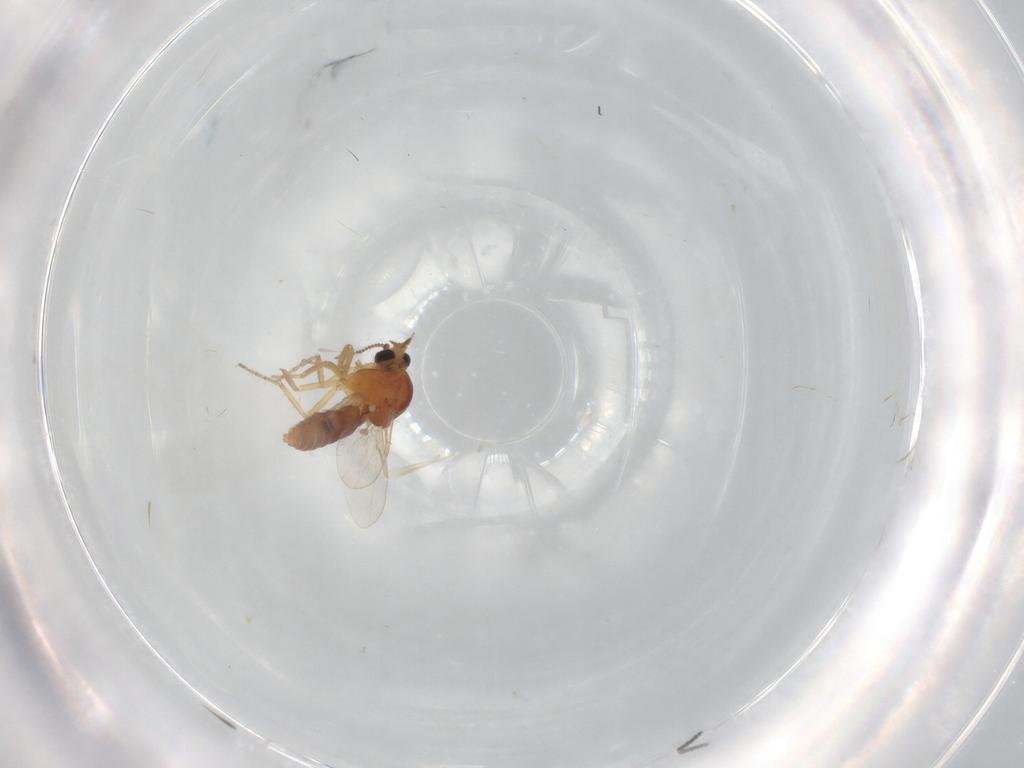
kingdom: Animalia
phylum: Arthropoda
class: Insecta
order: Diptera
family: Ceratopogonidae
